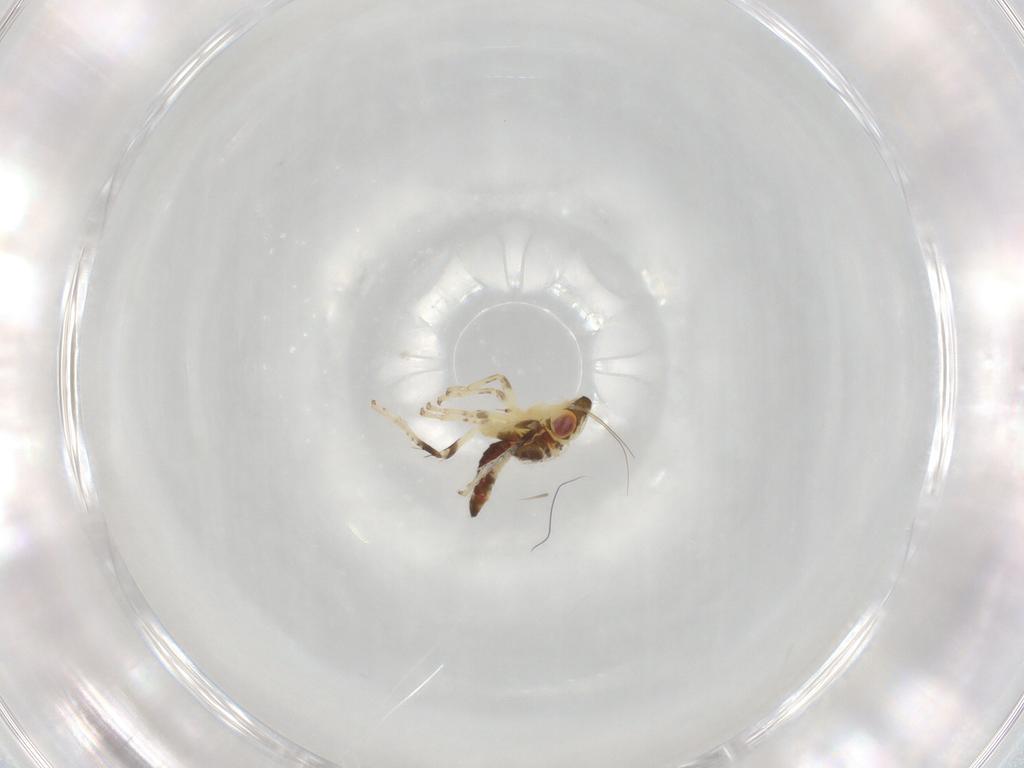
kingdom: Animalia
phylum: Arthropoda
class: Insecta
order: Hemiptera
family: Cicadellidae
